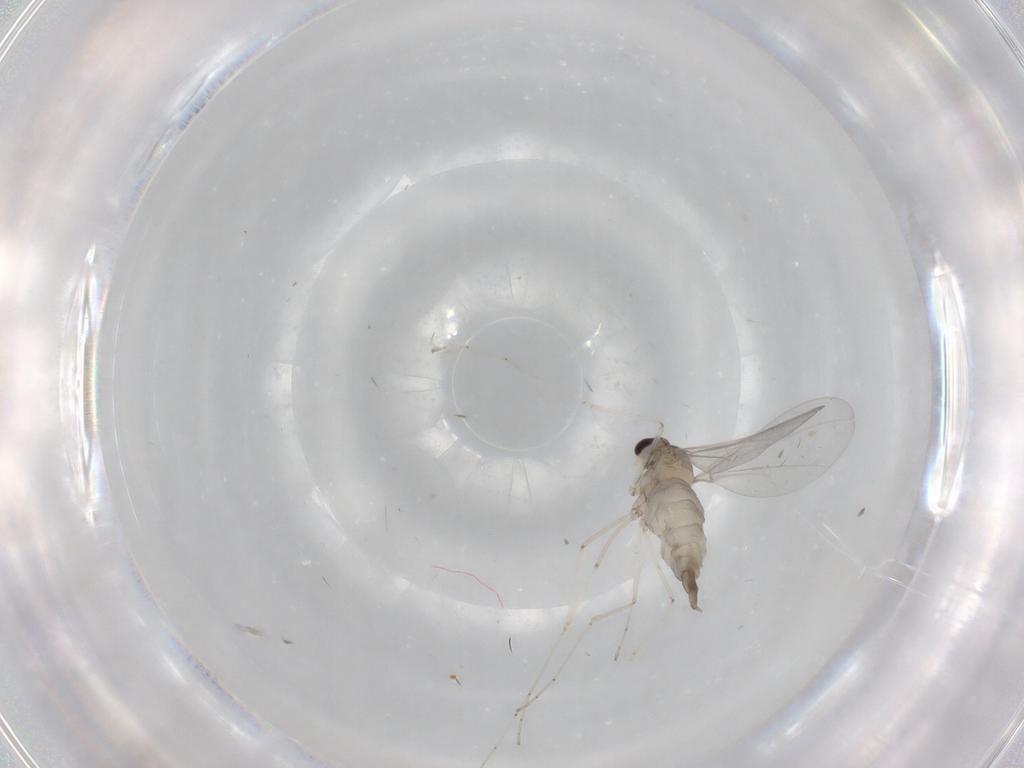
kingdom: Animalia
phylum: Arthropoda
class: Insecta
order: Diptera
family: Cecidomyiidae
